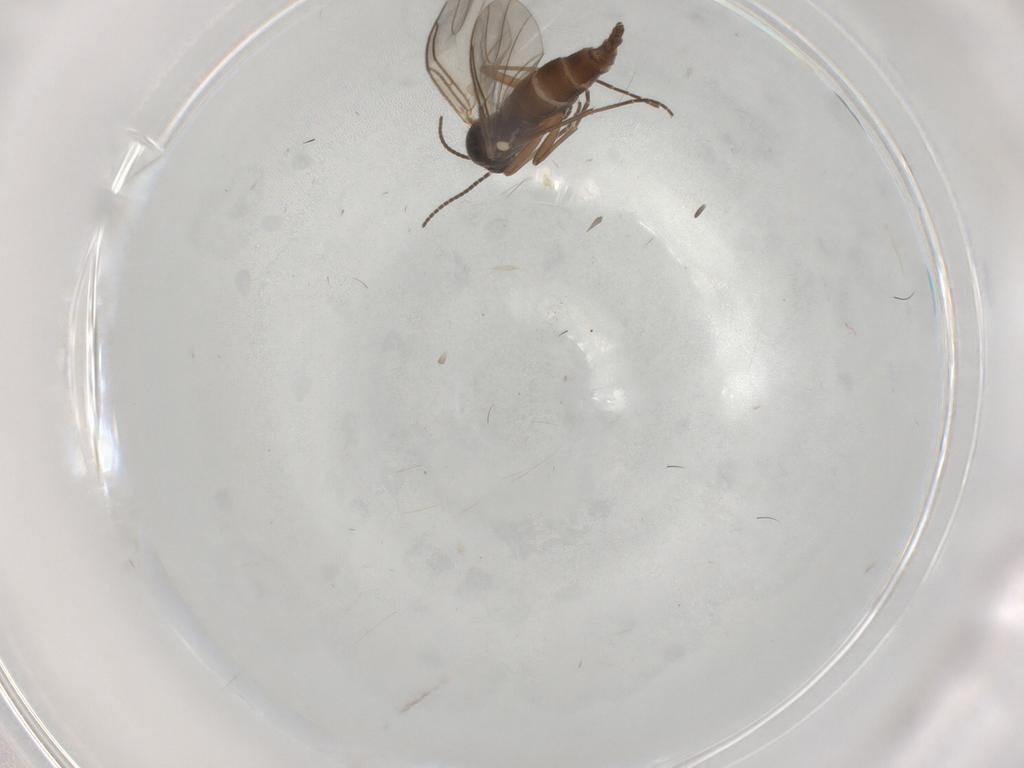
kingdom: Animalia
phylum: Arthropoda
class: Insecta
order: Diptera
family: Ceratopogonidae
